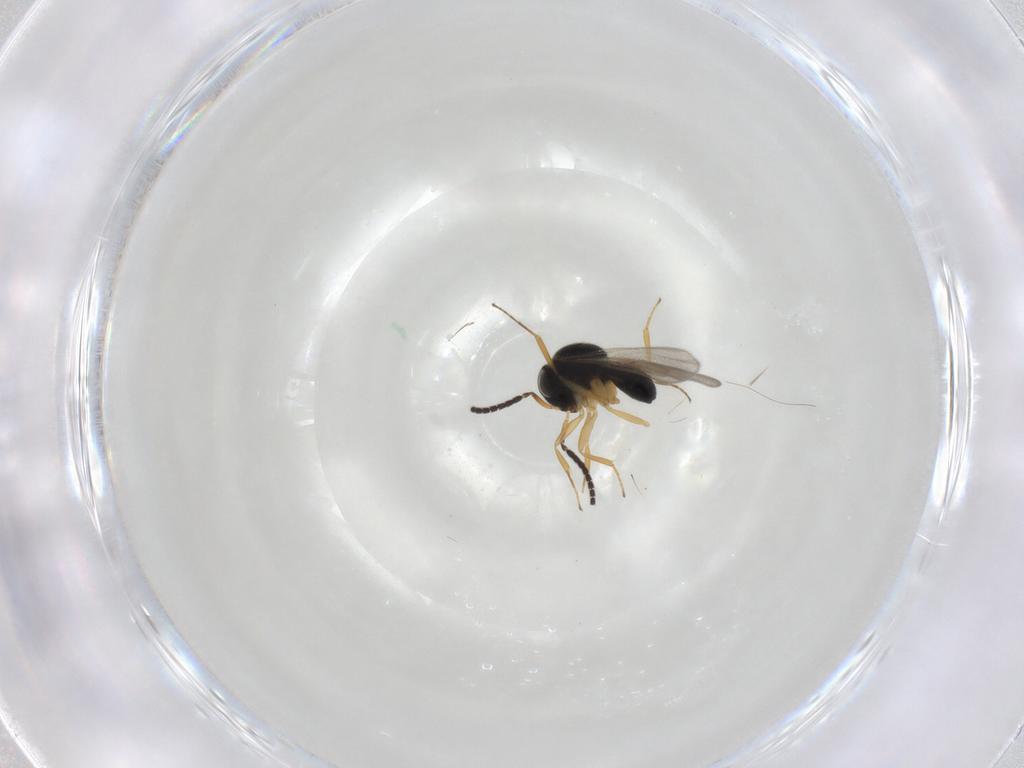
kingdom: Animalia
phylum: Arthropoda
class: Insecta
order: Hymenoptera
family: Scelionidae
